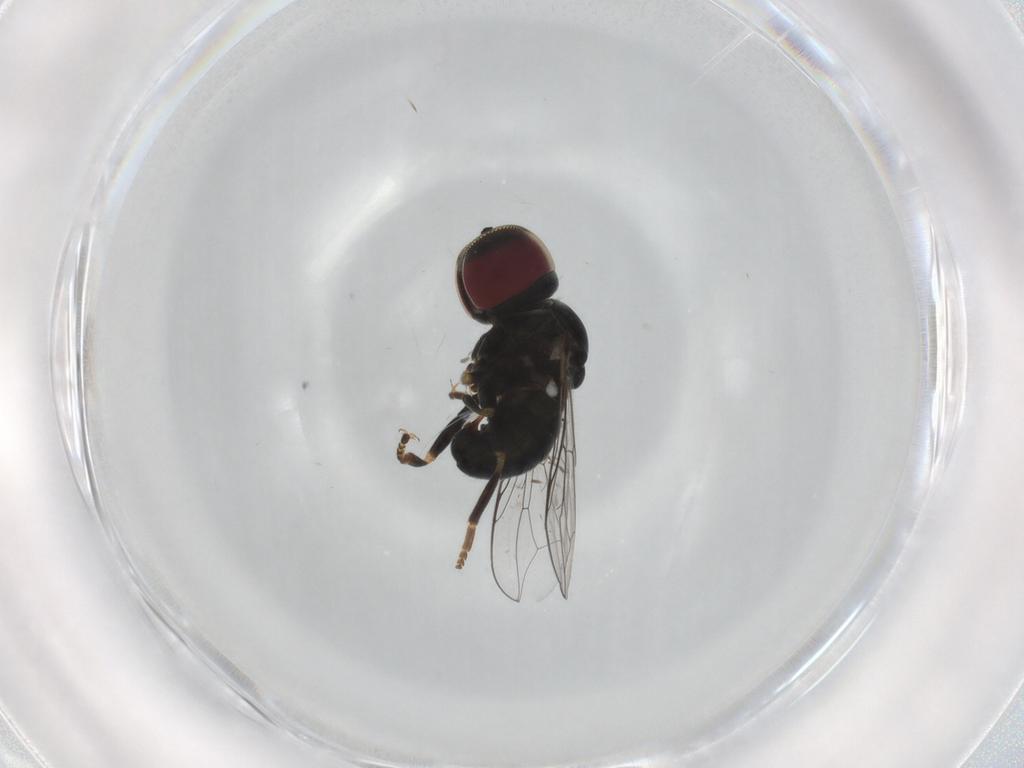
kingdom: Animalia
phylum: Arthropoda
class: Insecta
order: Diptera
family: Pipunculidae
